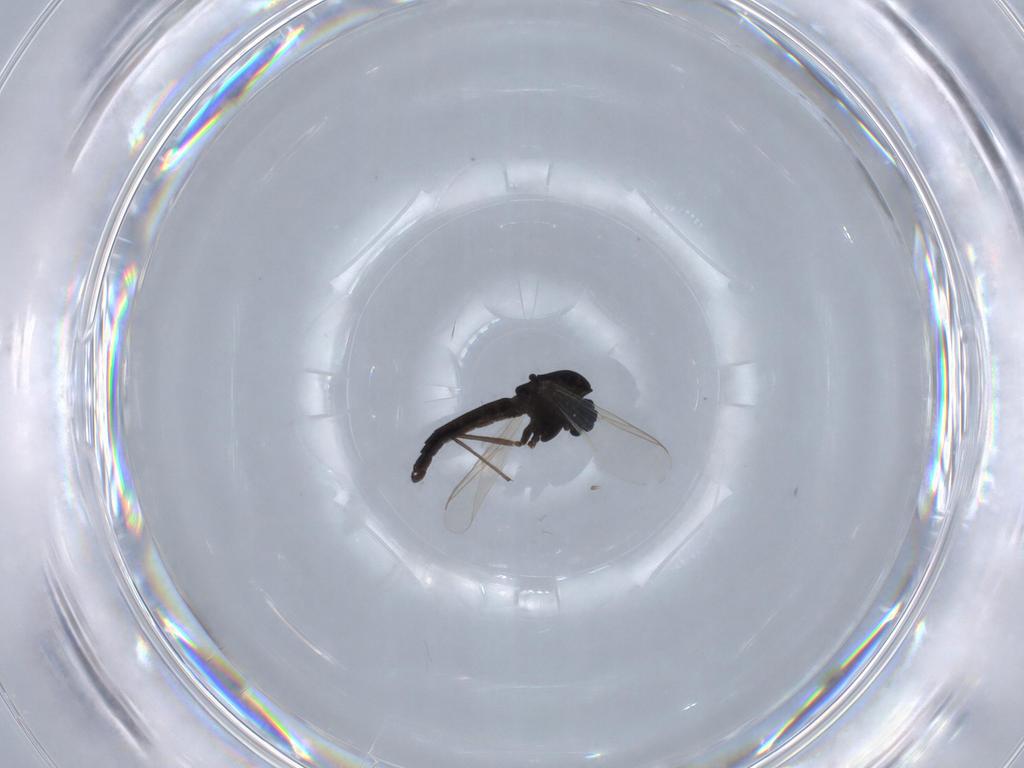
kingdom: Animalia
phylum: Arthropoda
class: Insecta
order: Diptera
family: Chironomidae
